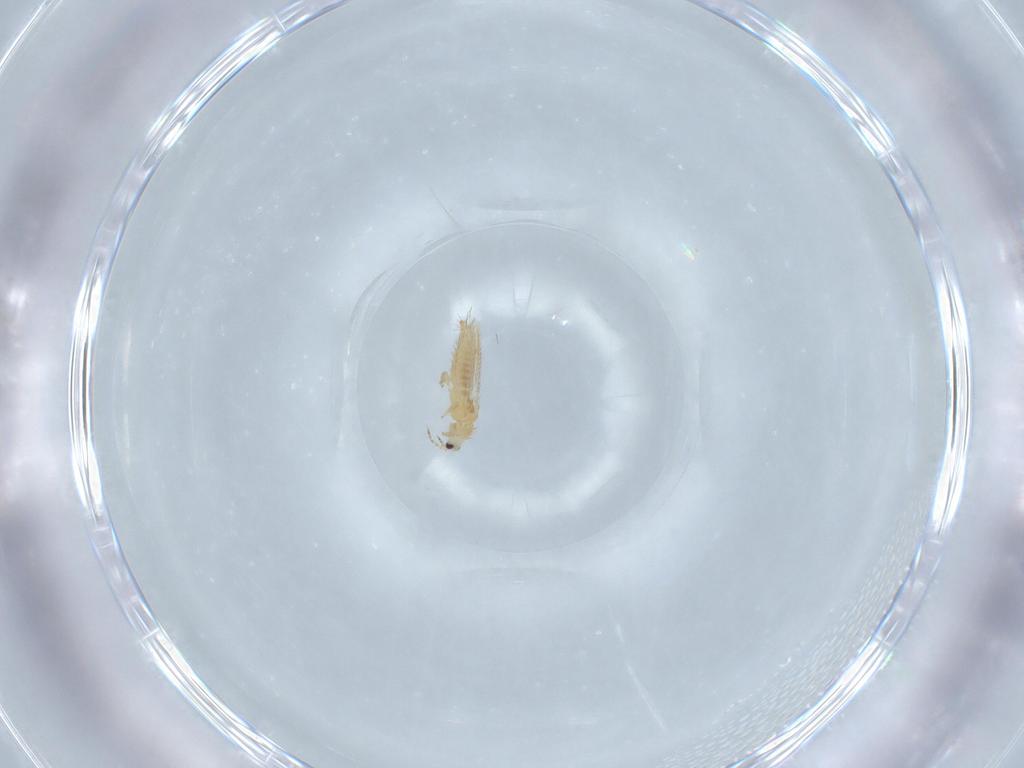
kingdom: Animalia
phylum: Arthropoda
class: Insecta
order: Thysanoptera
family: Thripidae
